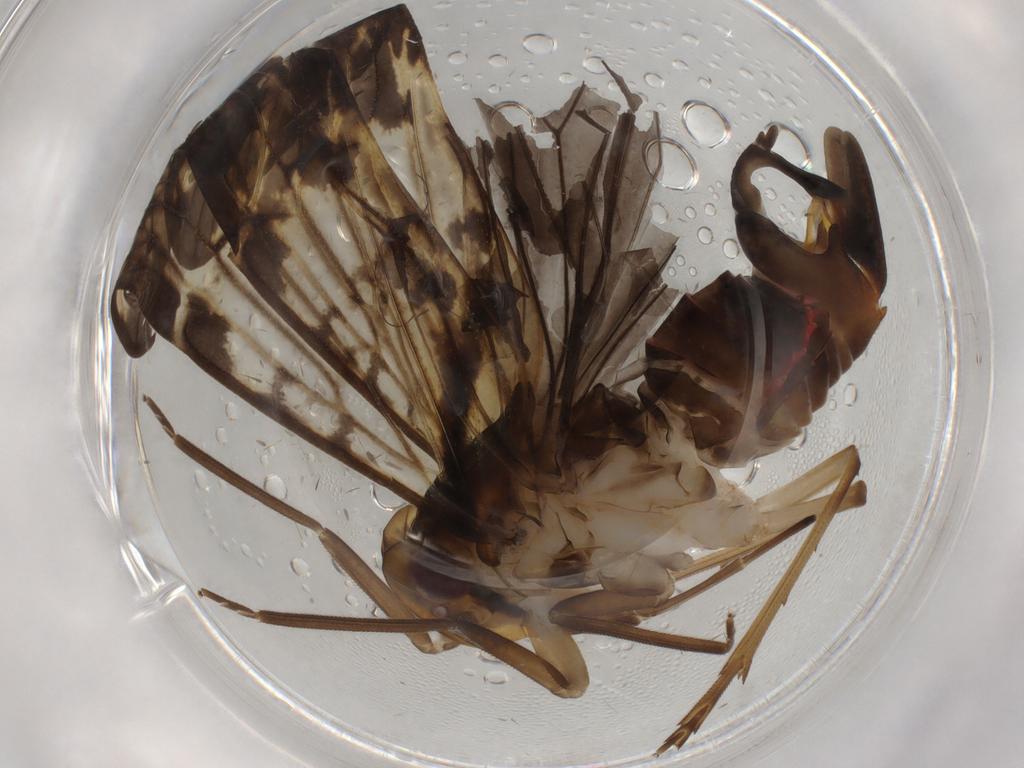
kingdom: Animalia
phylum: Arthropoda
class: Insecta
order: Hemiptera
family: Cixiidae
